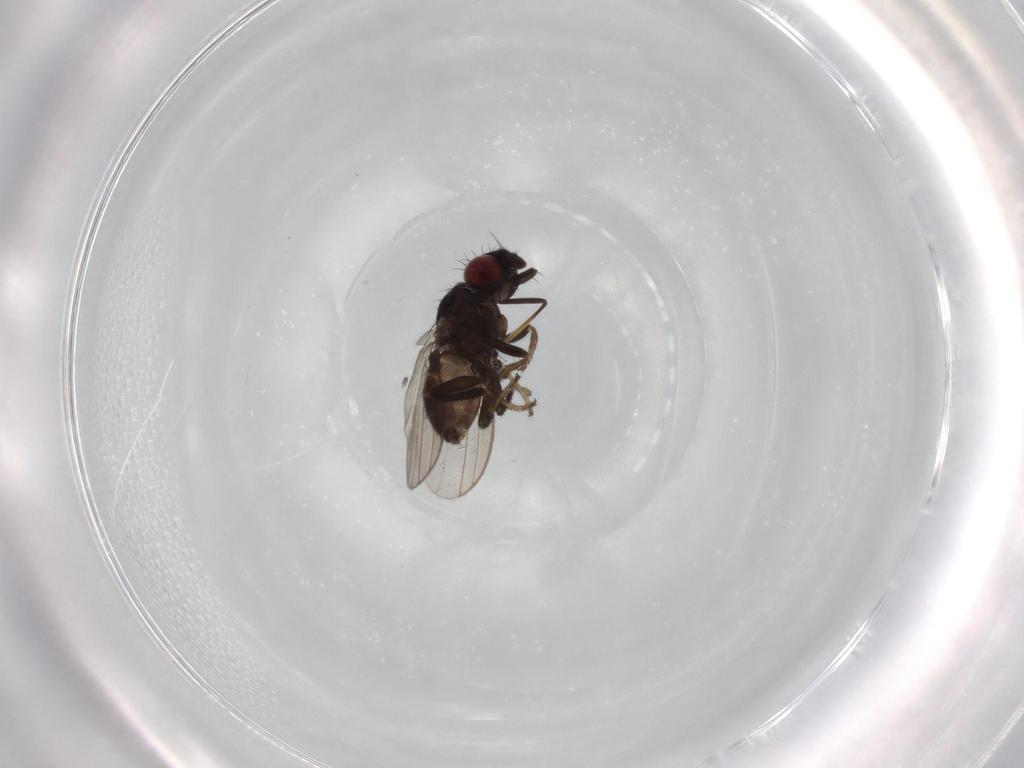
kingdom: Animalia
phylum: Arthropoda
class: Insecta
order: Diptera
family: Milichiidae
